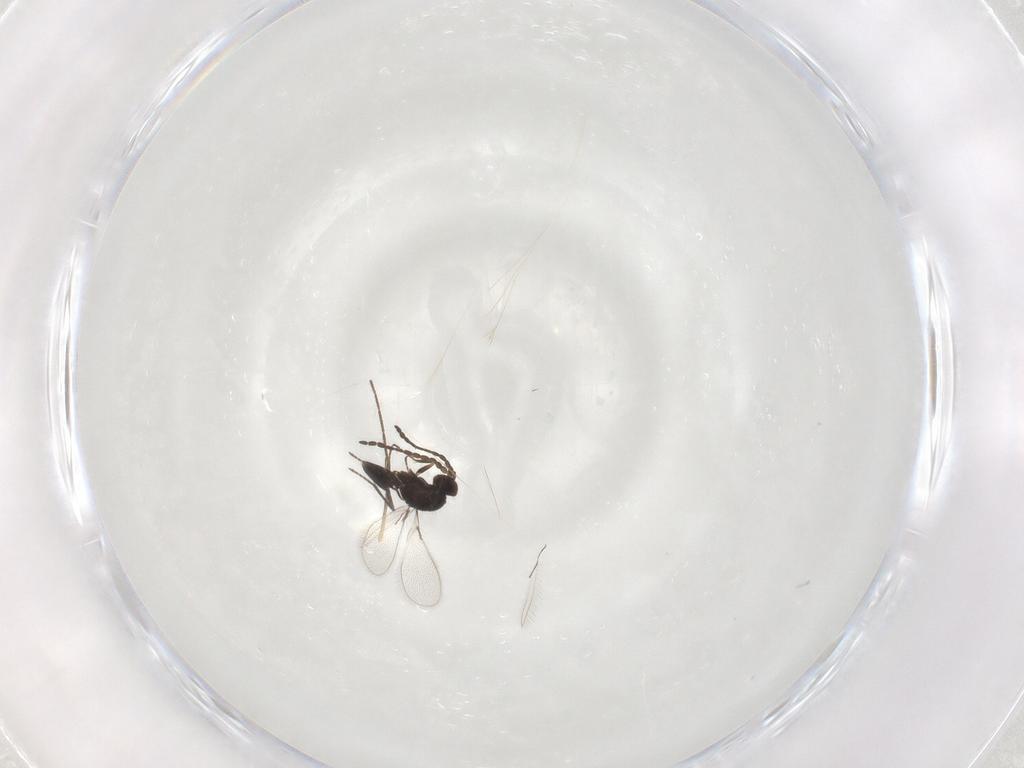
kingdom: Animalia
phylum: Arthropoda
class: Insecta
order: Hymenoptera
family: Mymaridae
